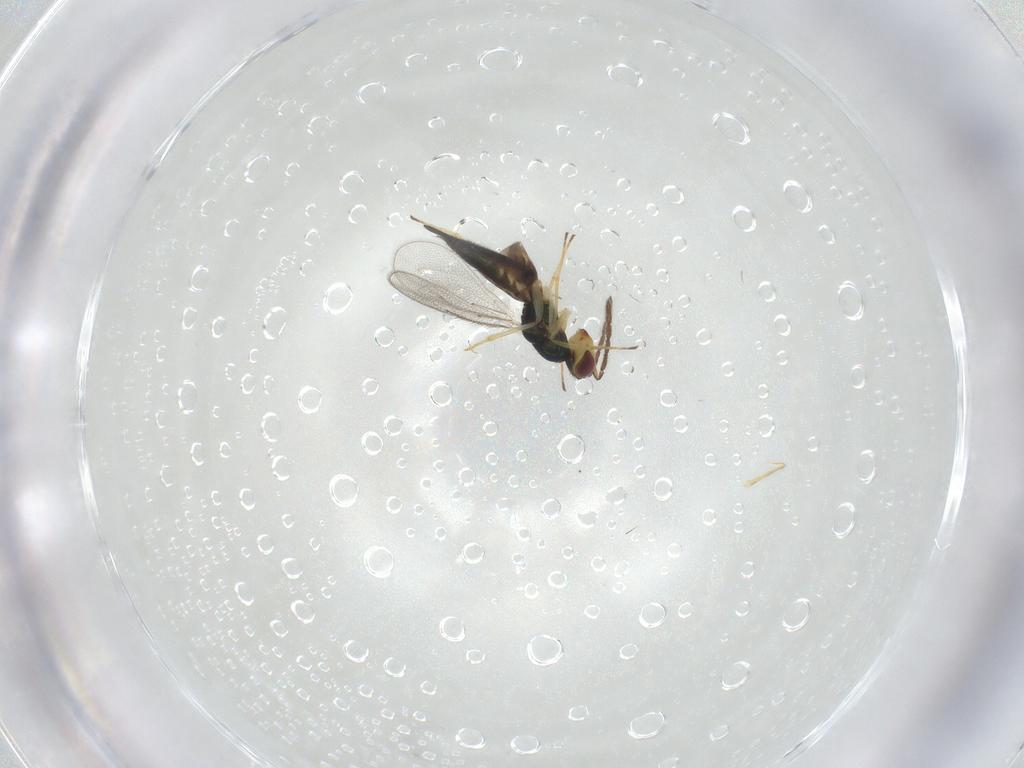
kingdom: Animalia
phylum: Arthropoda
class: Insecta
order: Hymenoptera
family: Eulophidae
